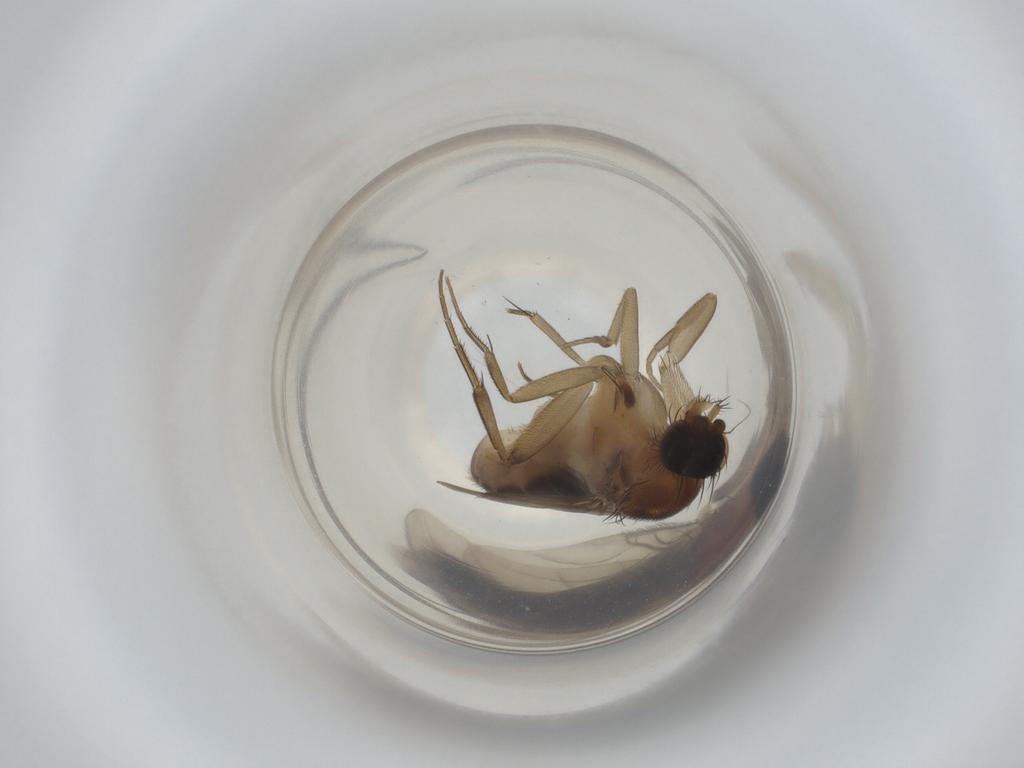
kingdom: Animalia
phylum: Arthropoda
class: Insecta
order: Diptera
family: Phoridae
